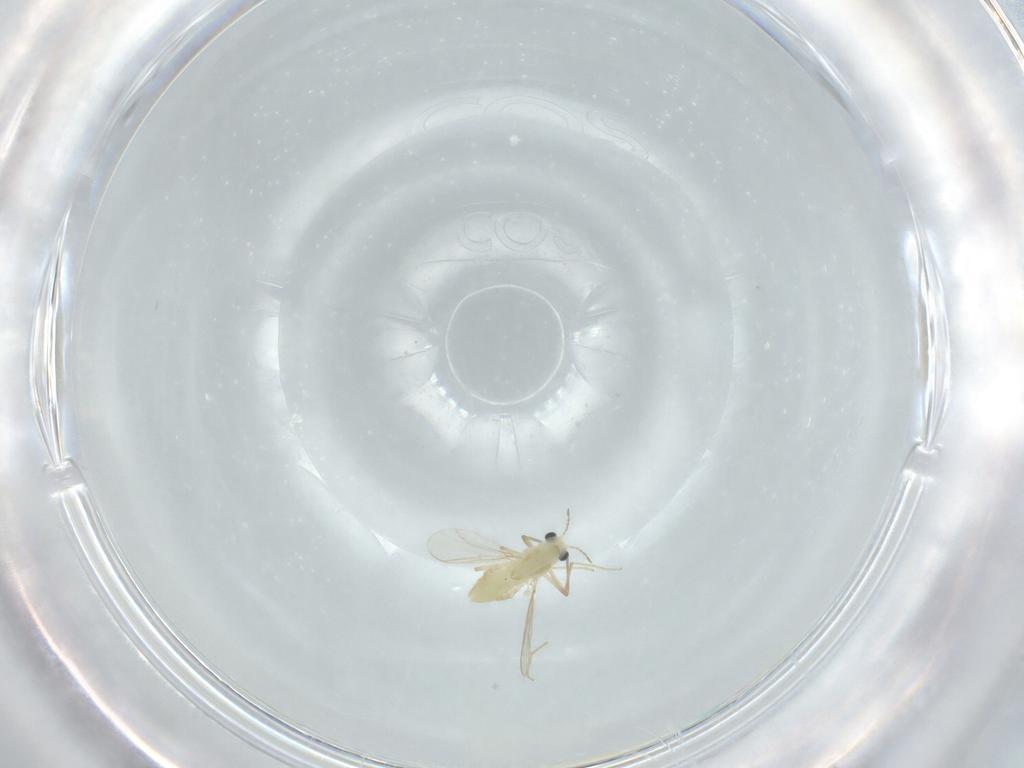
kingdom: Animalia
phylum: Arthropoda
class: Insecta
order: Diptera
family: Chironomidae
